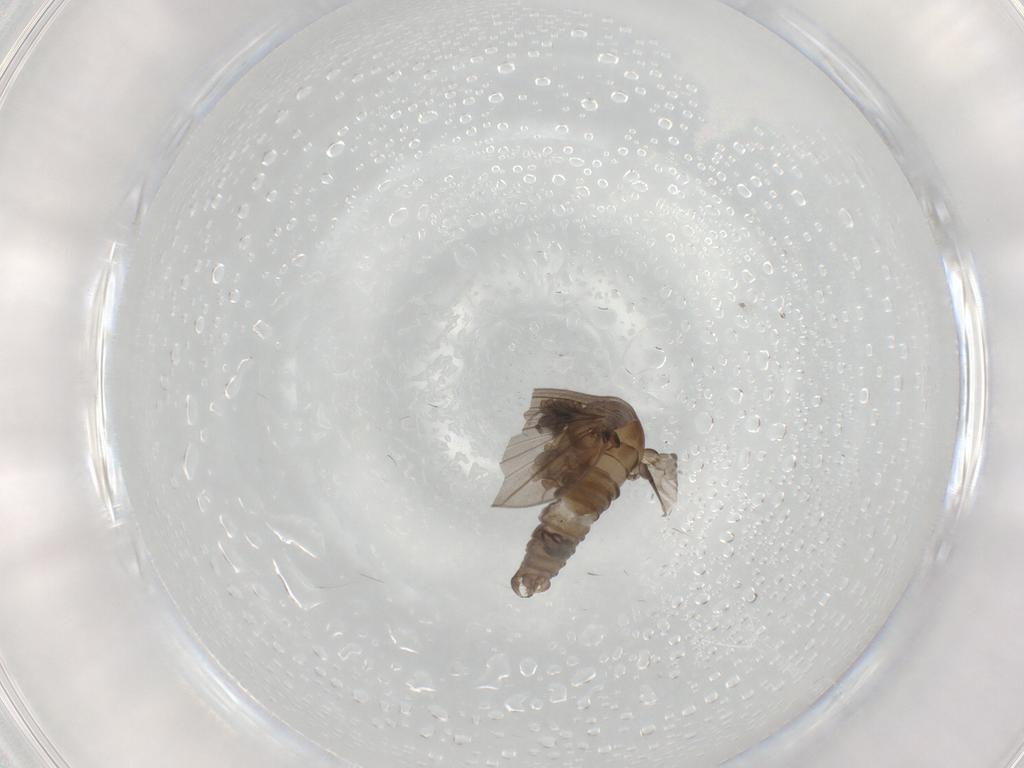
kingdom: Animalia
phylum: Arthropoda
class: Insecta
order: Diptera
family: Psychodidae
